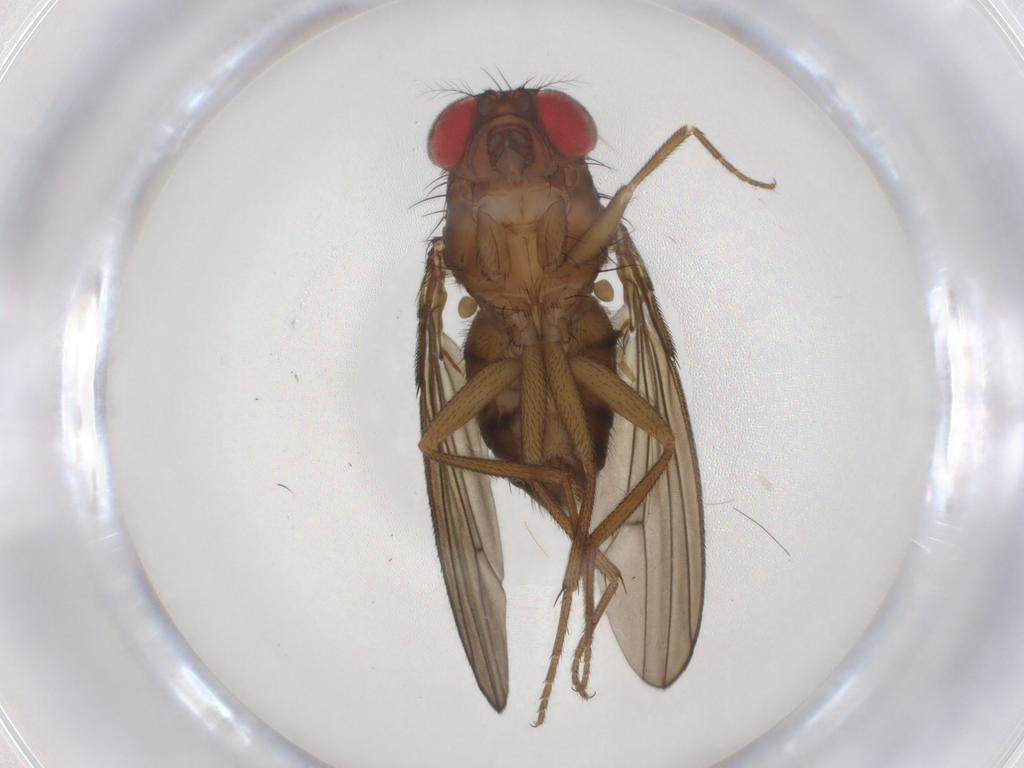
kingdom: Animalia
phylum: Arthropoda
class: Insecta
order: Diptera
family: Drosophilidae
